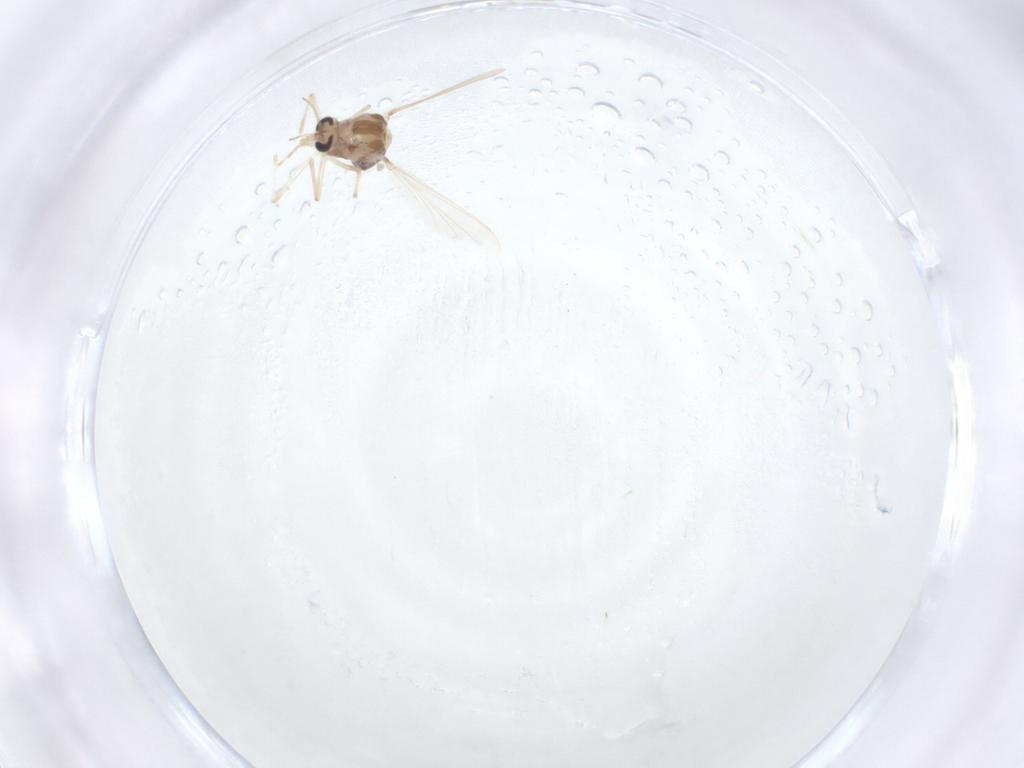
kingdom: Animalia
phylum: Arthropoda
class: Insecta
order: Diptera
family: Chironomidae
